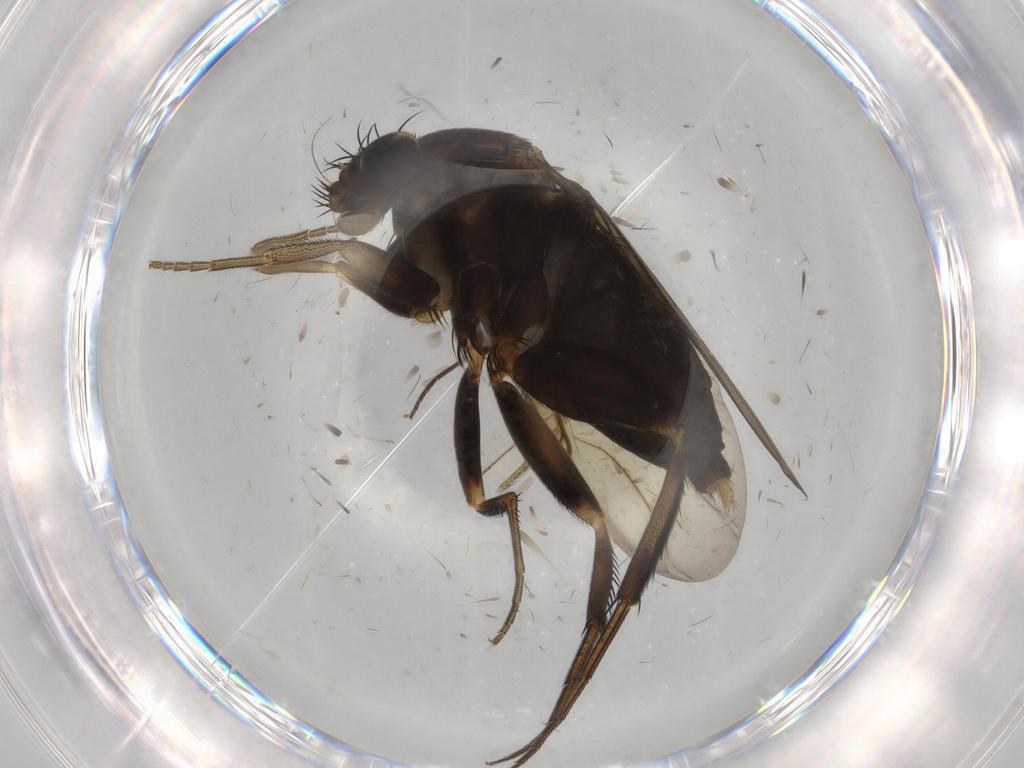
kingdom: Animalia
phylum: Arthropoda
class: Insecta
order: Diptera
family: Phoridae
